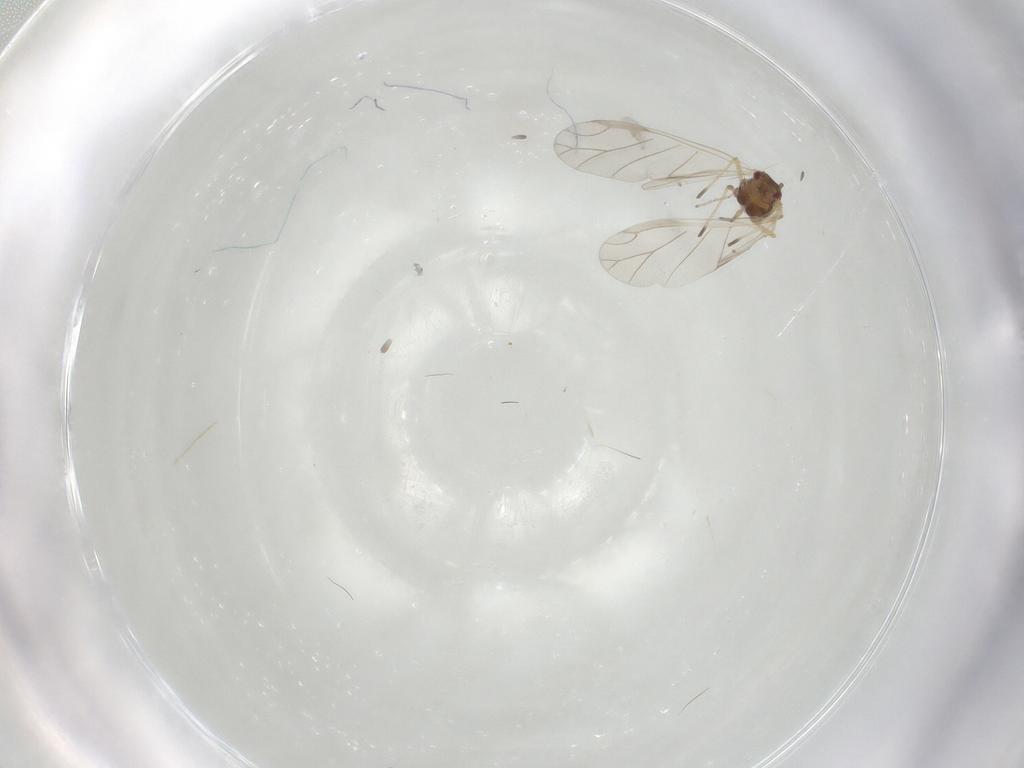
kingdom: Animalia
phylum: Arthropoda
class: Insecta
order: Hemiptera
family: Aphididae
